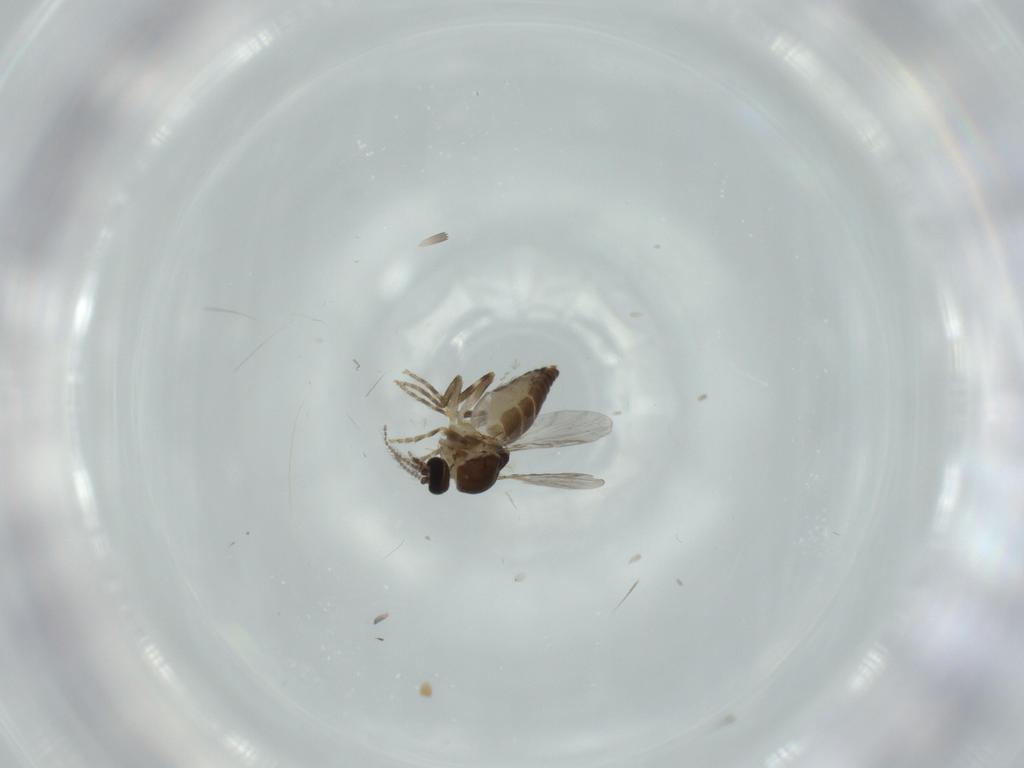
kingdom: Animalia
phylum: Arthropoda
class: Insecta
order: Diptera
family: Ceratopogonidae
